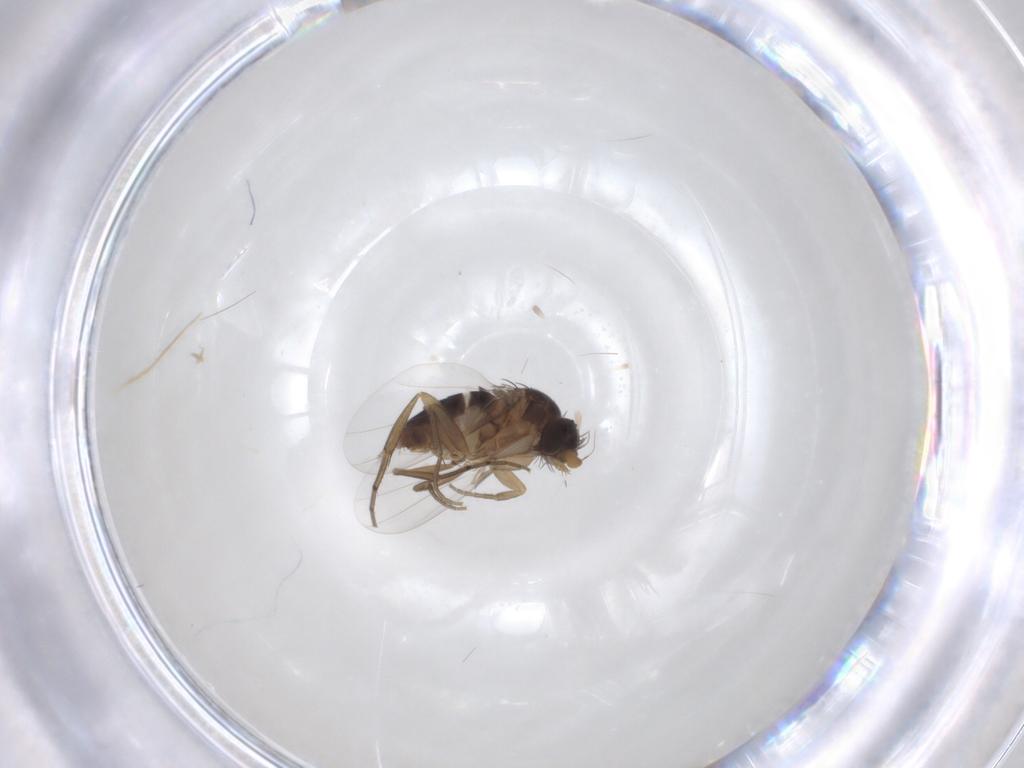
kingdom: Animalia
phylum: Arthropoda
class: Insecta
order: Diptera
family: Phoridae
